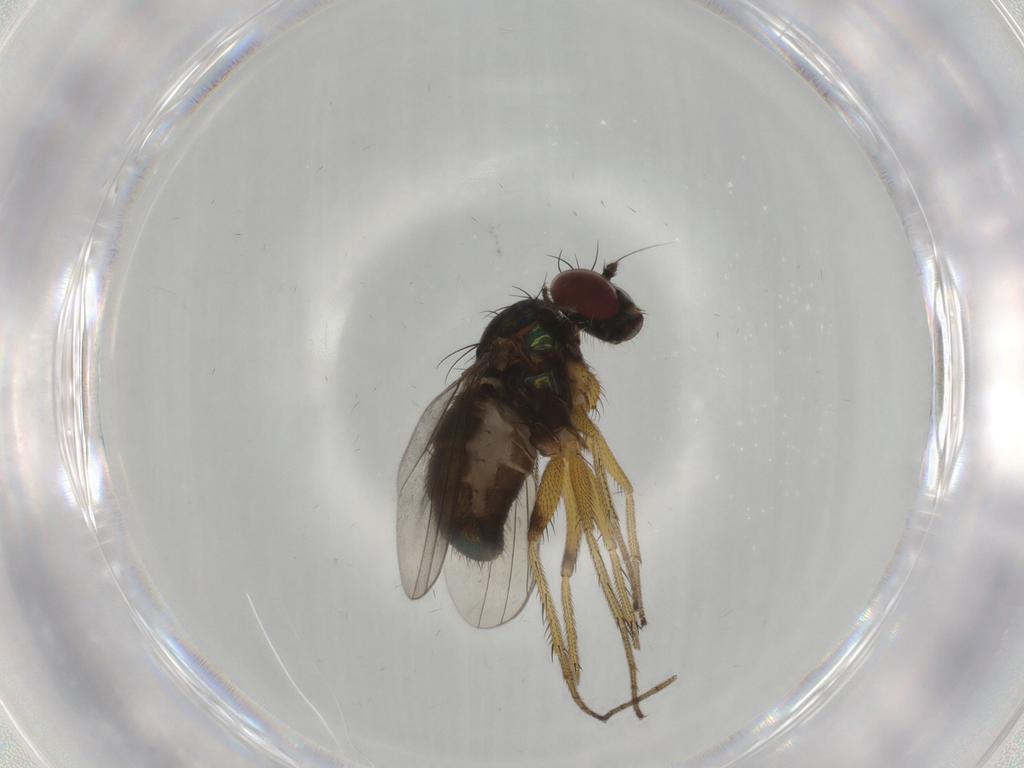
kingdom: Animalia
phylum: Arthropoda
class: Insecta
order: Diptera
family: Dolichopodidae
